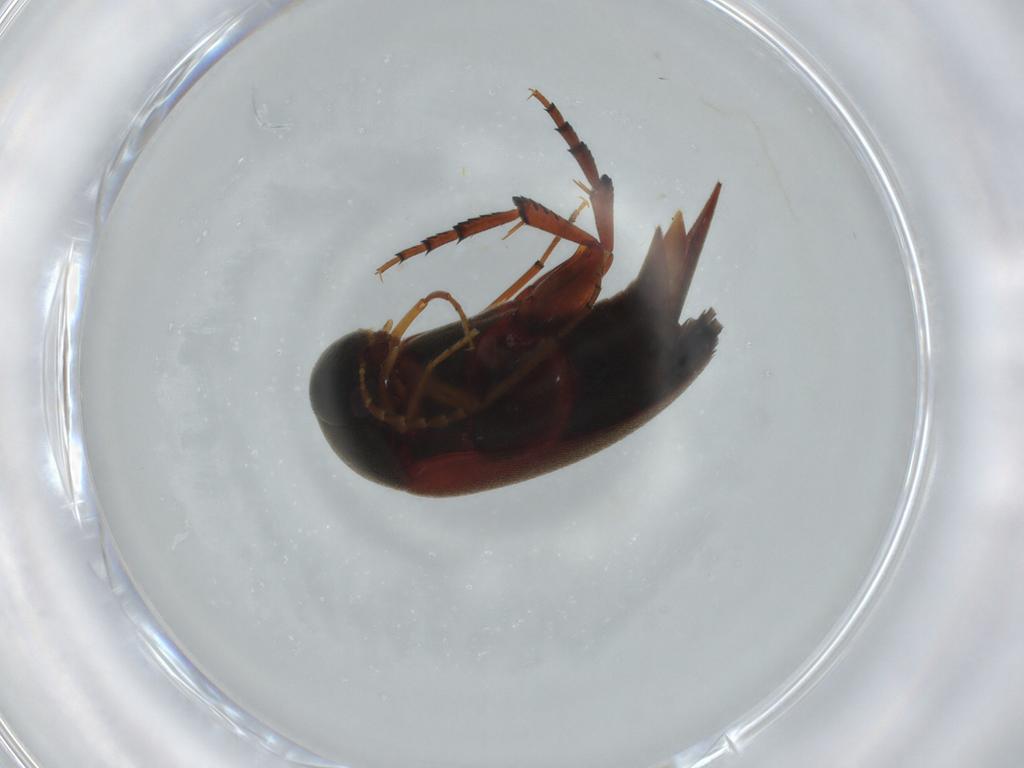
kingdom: Animalia
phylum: Arthropoda
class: Insecta
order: Coleoptera
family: Mordellidae
